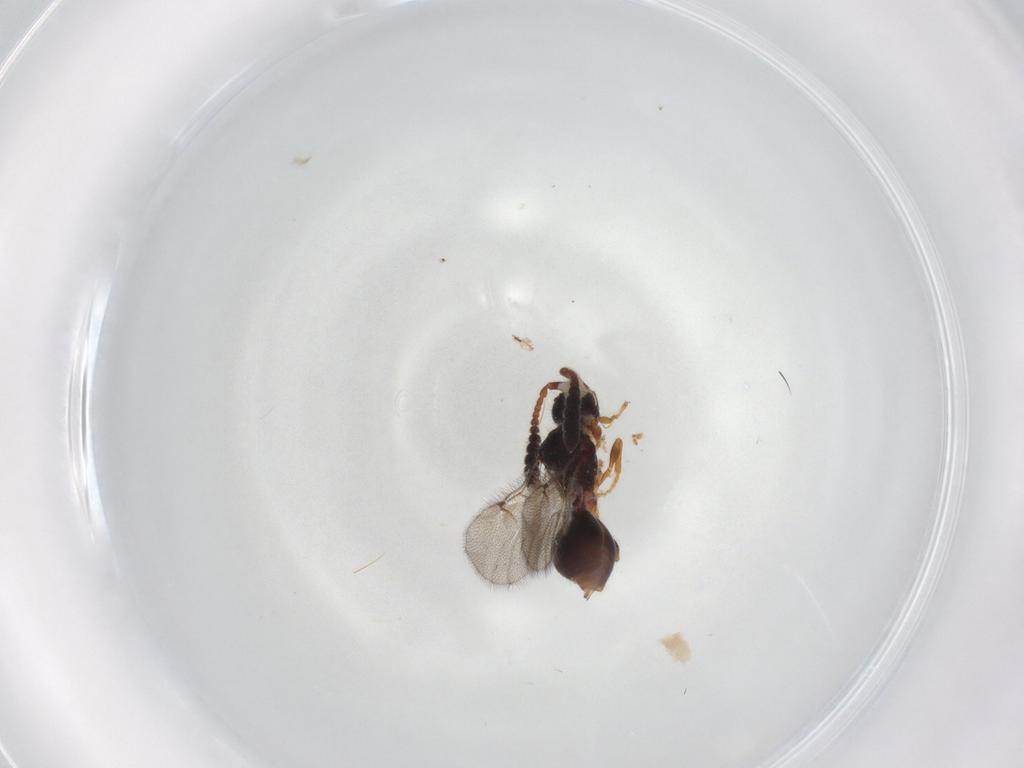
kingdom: Animalia
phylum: Arthropoda
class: Insecta
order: Hymenoptera
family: Diapriidae
